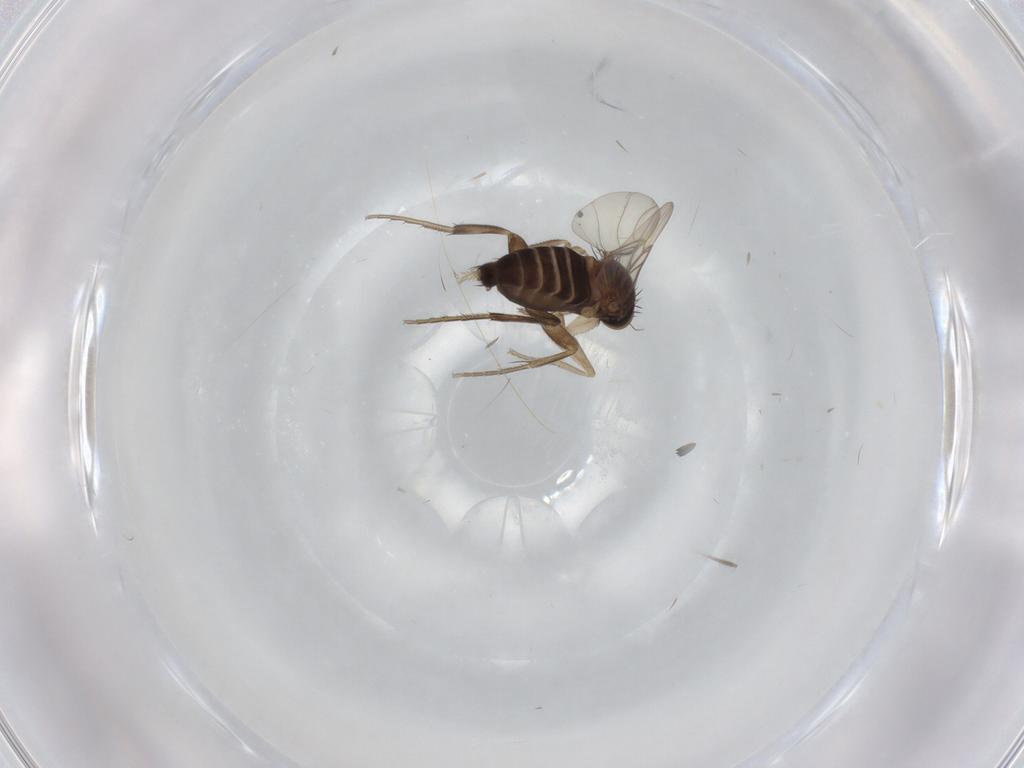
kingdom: Animalia
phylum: Arthropoda
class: Insecta
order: Diptera
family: Phoridae
